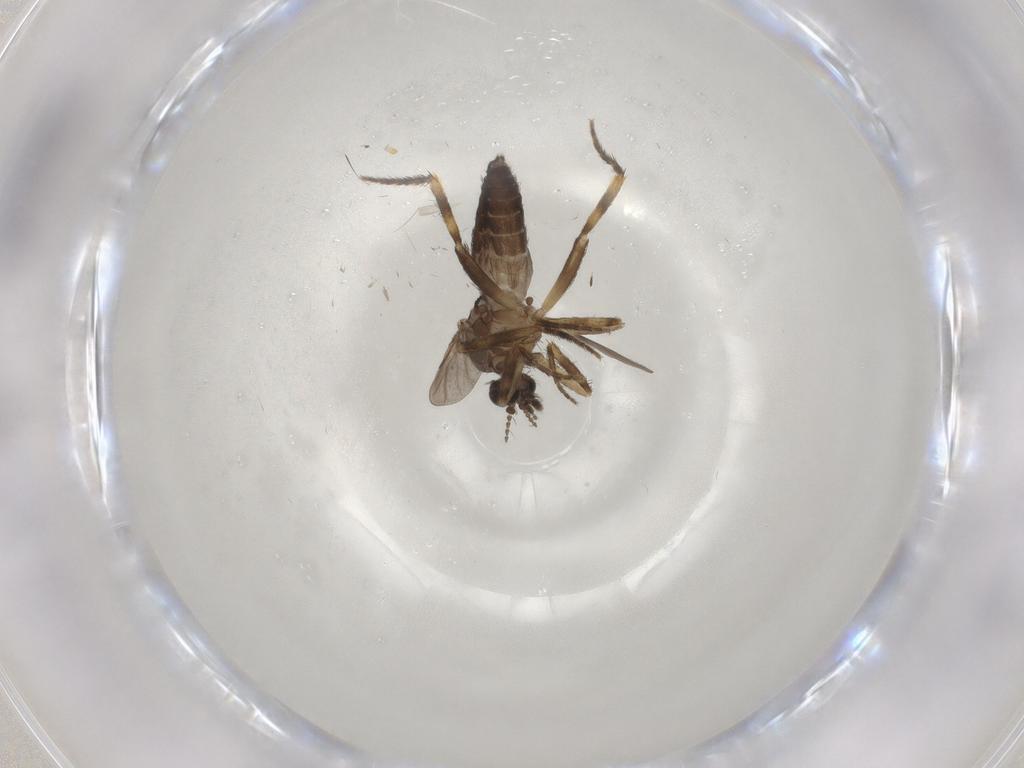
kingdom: Animalia
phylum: Arthropoda
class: Insecta
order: Diptera
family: Ceratopogonidae
